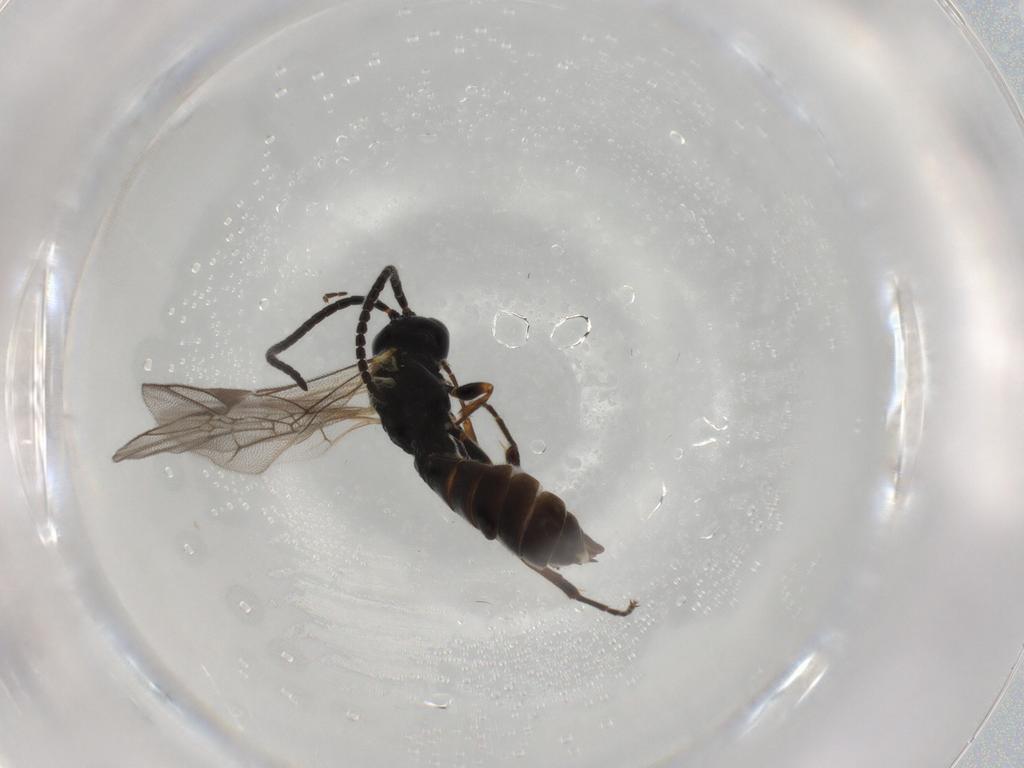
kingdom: Animalia
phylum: Arthropoda
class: Insecta
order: Hymenoptera
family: Ichneumonidae
